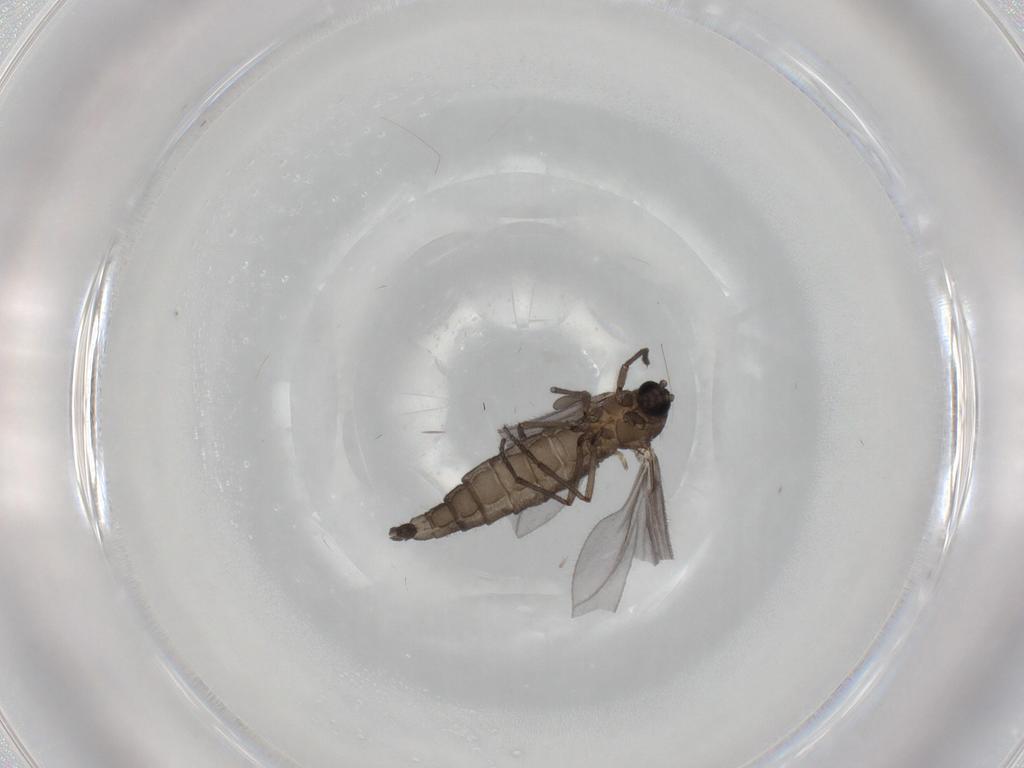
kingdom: Animalia
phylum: Arthropoda
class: Insecta
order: Diptera
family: Sciaridae
